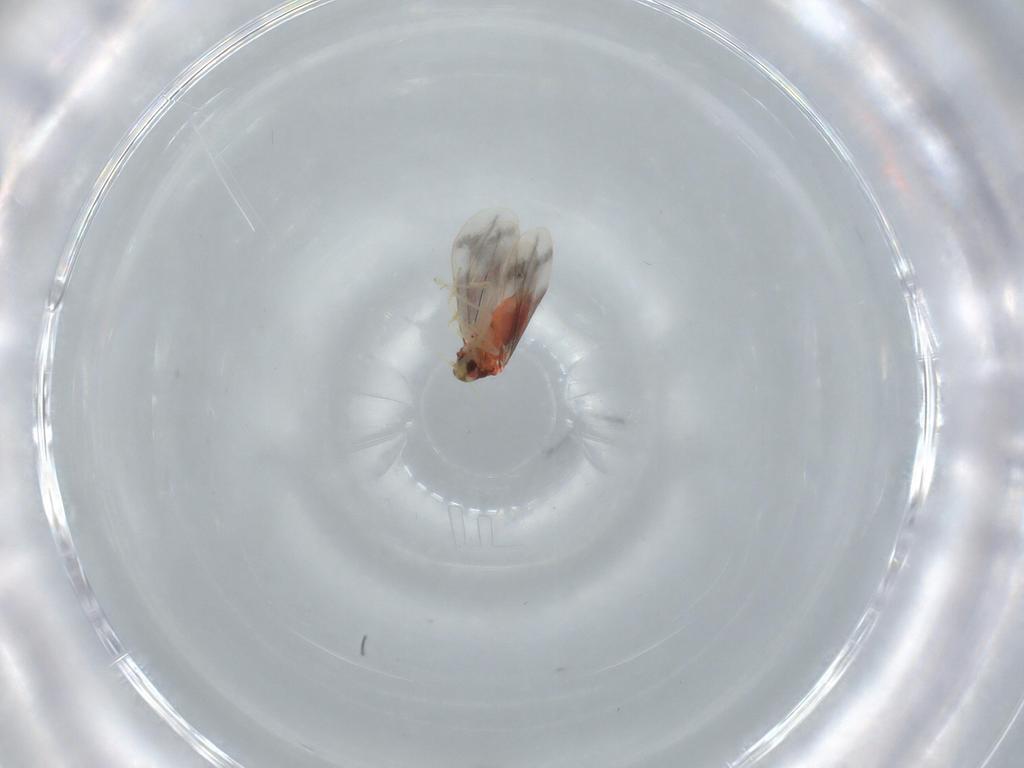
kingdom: Animalia
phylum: Arthropoda
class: Insecta
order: Hemiptera
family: Aleyrodidae
